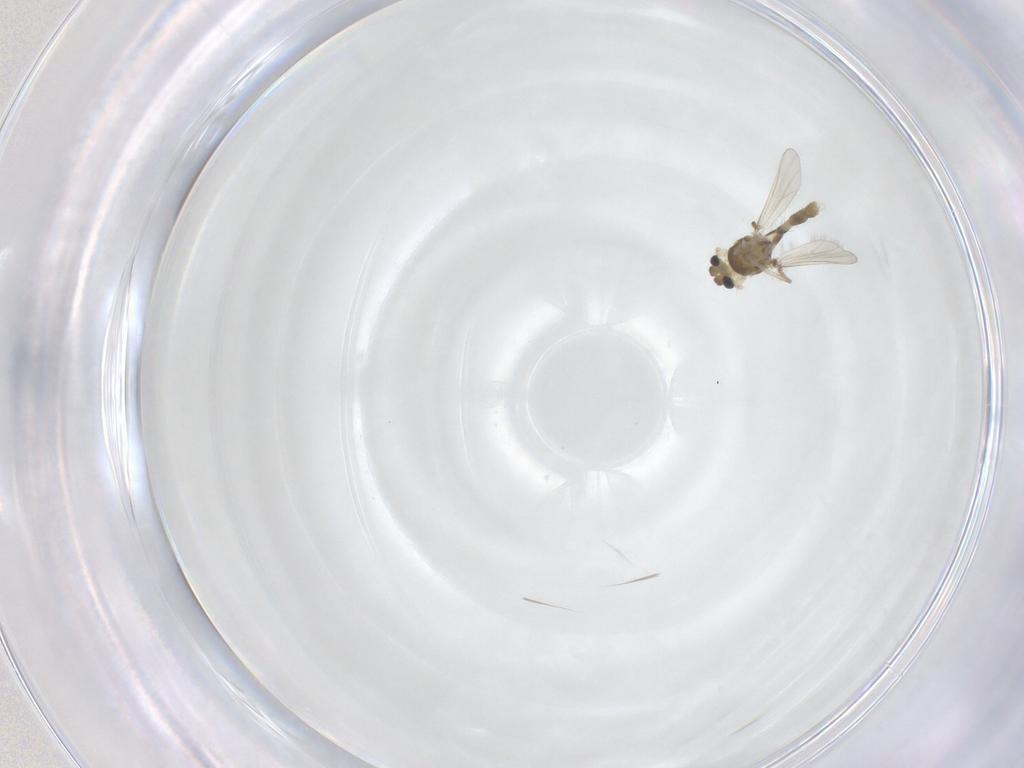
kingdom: Animalia
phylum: Arthropoda
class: Insecta
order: Diptera
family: Chironomidae
